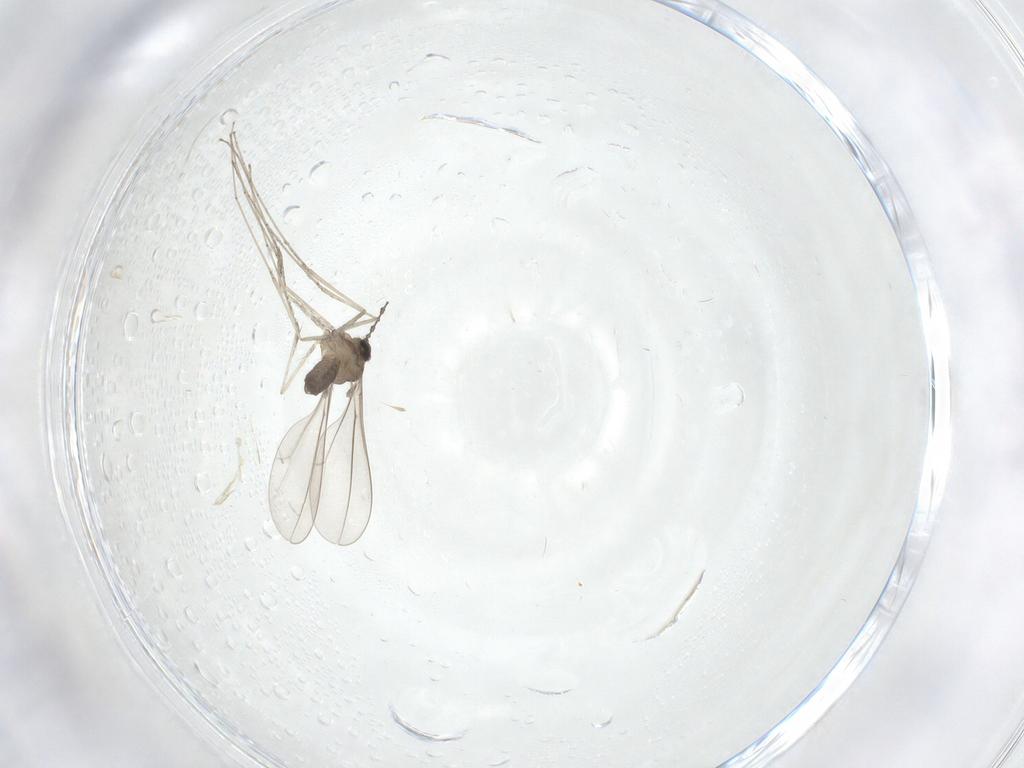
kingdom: Animalia
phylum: Arthropoda
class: Insecta
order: Diptera
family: Cecidomyiidae
